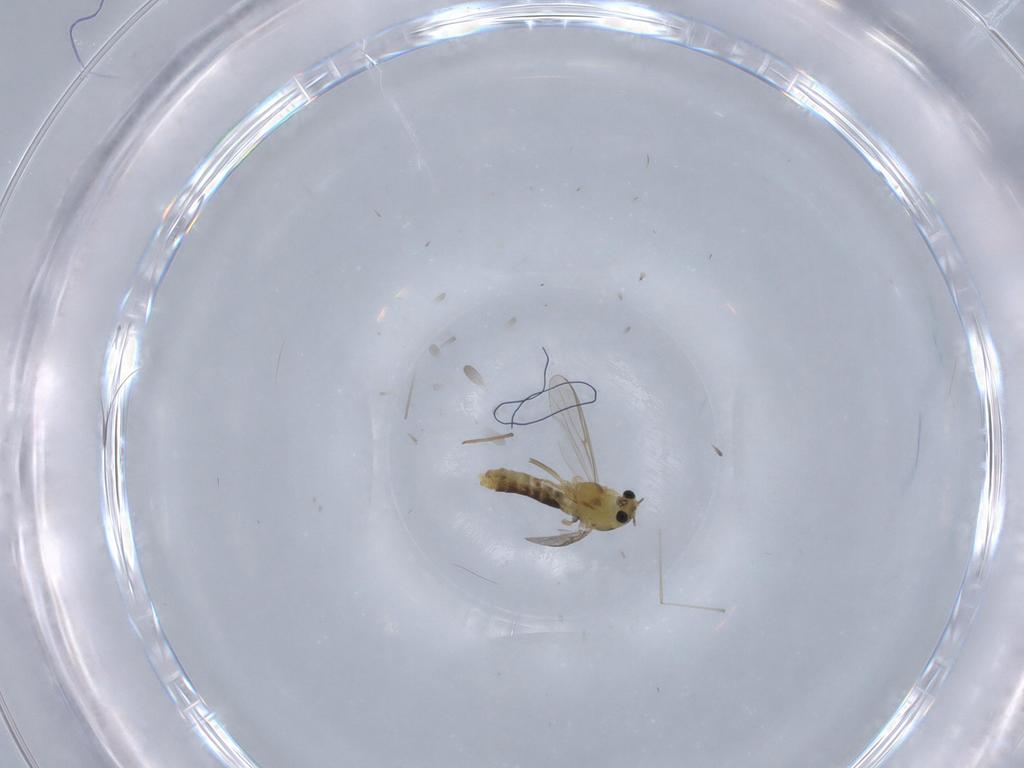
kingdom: Animalia
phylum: Arthropoda
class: Insecta
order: Diptera
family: Chironomidae
